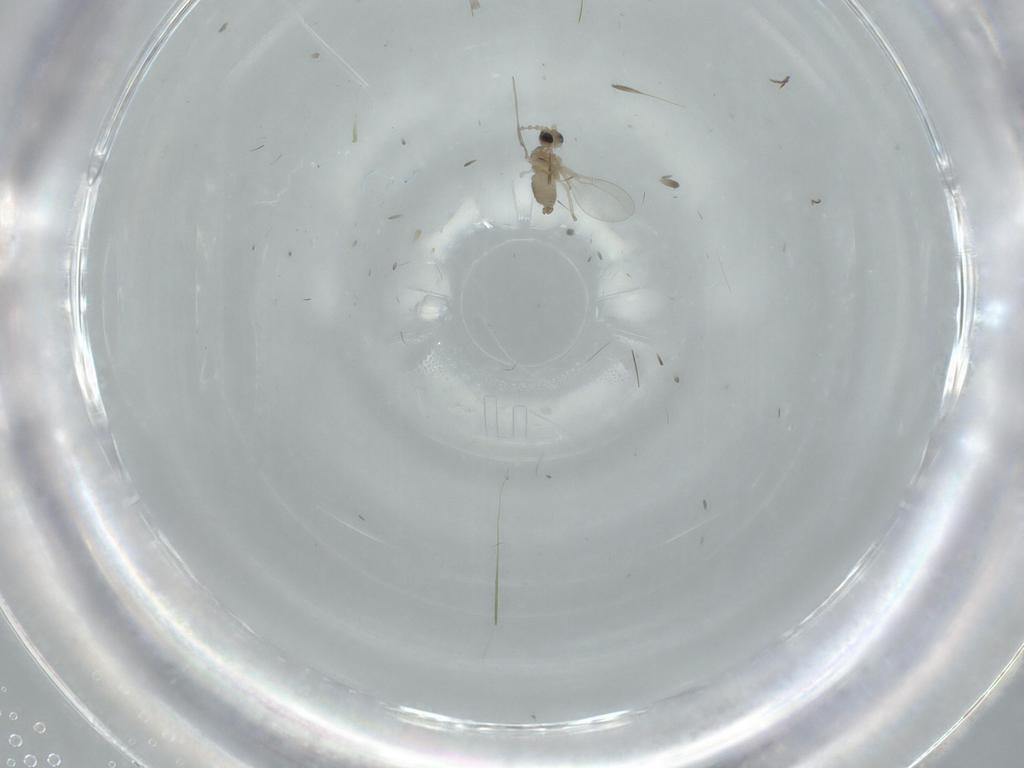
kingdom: Animalia
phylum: Arthropoda
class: Insecta
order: Diptera
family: Cecidomyiidae
